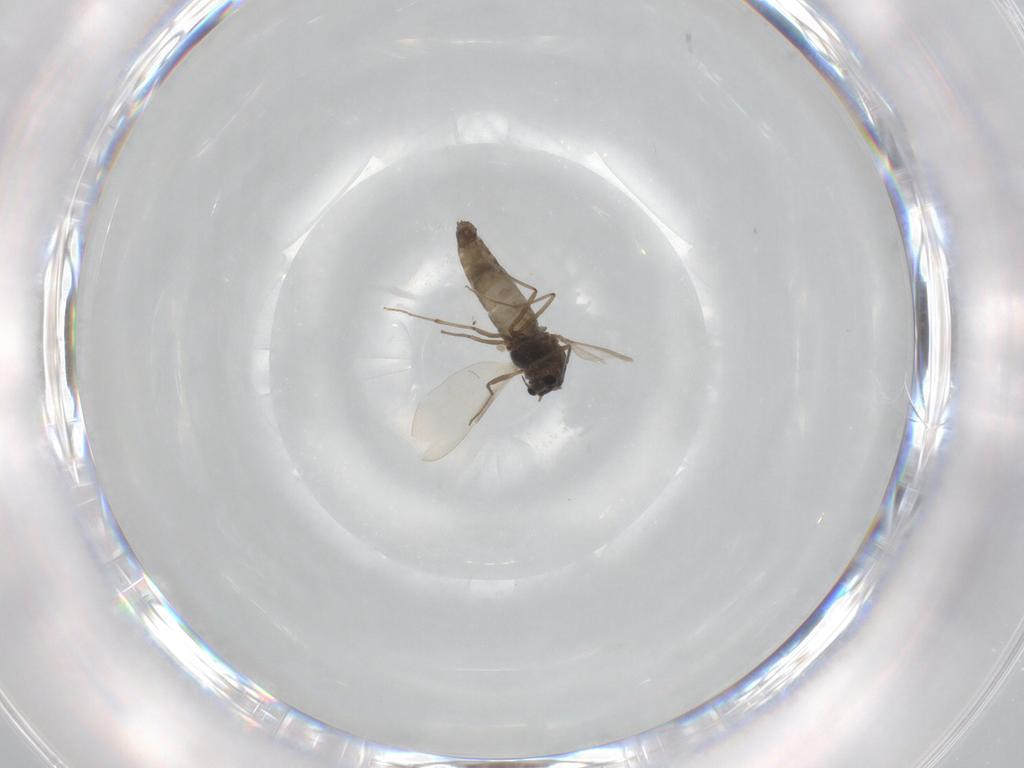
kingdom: Animalia
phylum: Arthropoda
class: Insecta
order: Diptera
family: Chironomidae
